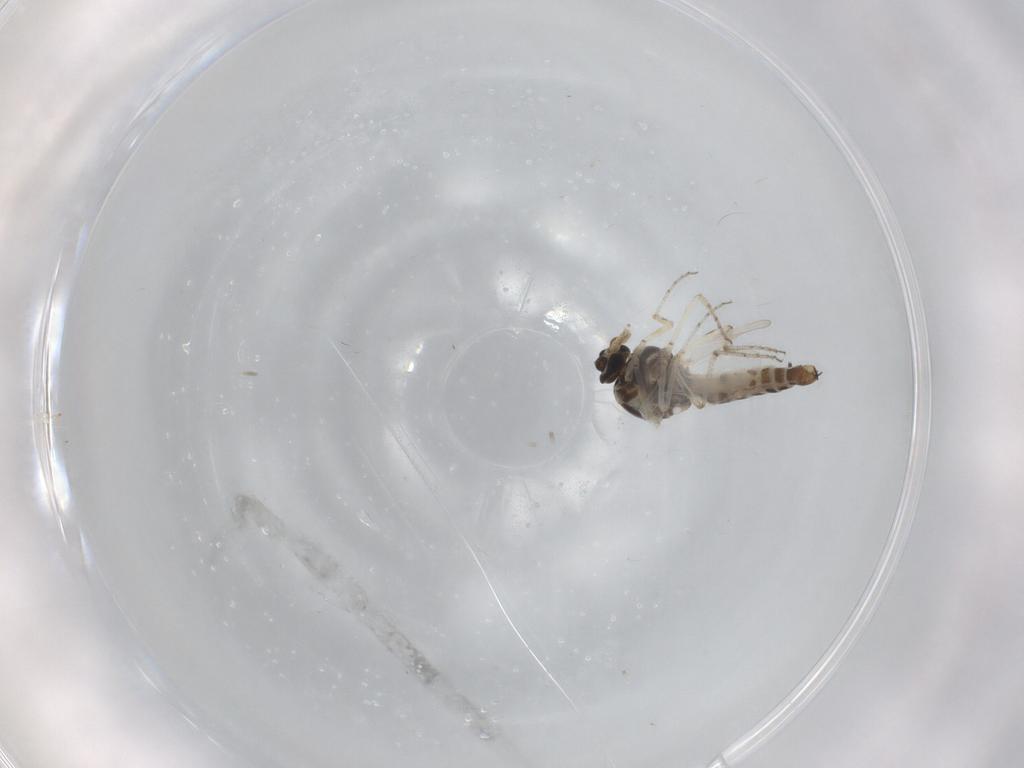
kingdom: Animalia
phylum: Arthropoda
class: Insecta
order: Diptera
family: Ceratopogonidae
